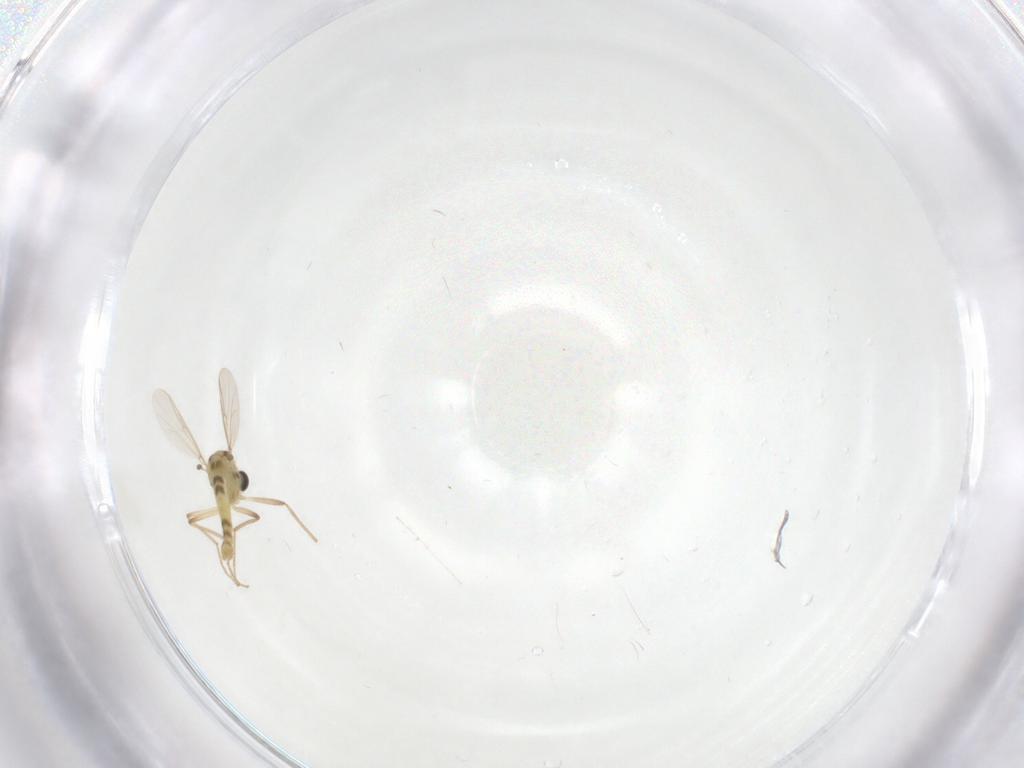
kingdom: Animalia
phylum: Arthropoda
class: Insecta
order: Diptera
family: Chironomidae
